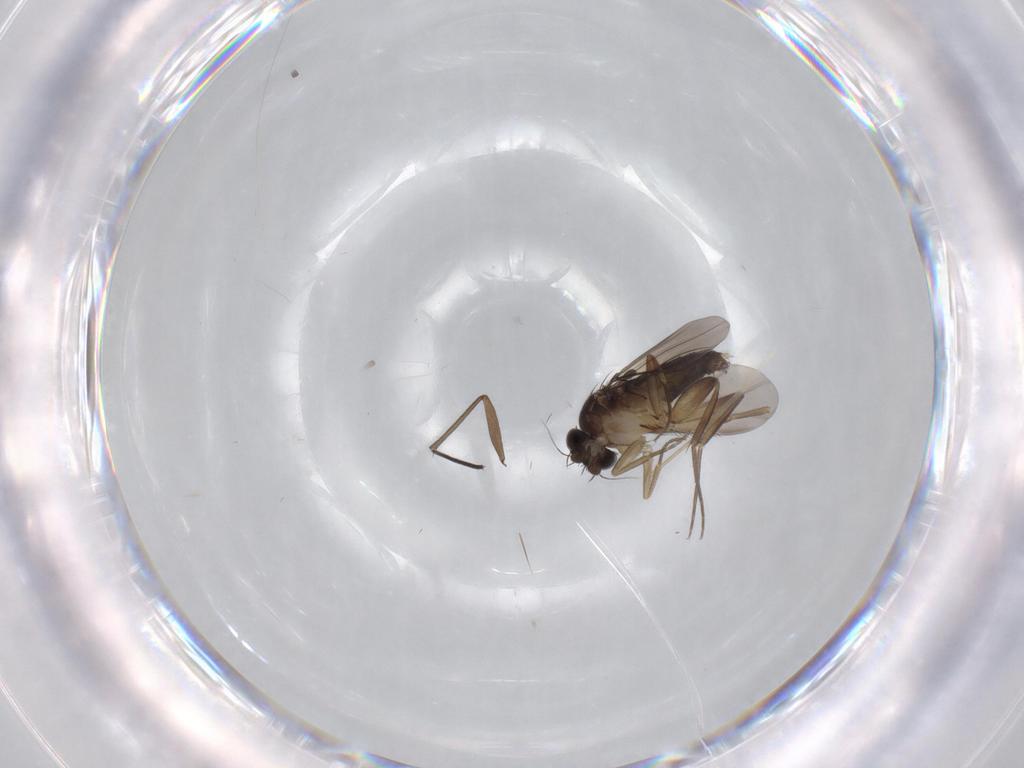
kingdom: Animalia
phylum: Arthropoda
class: Insecta
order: Diptera
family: Phoridae
